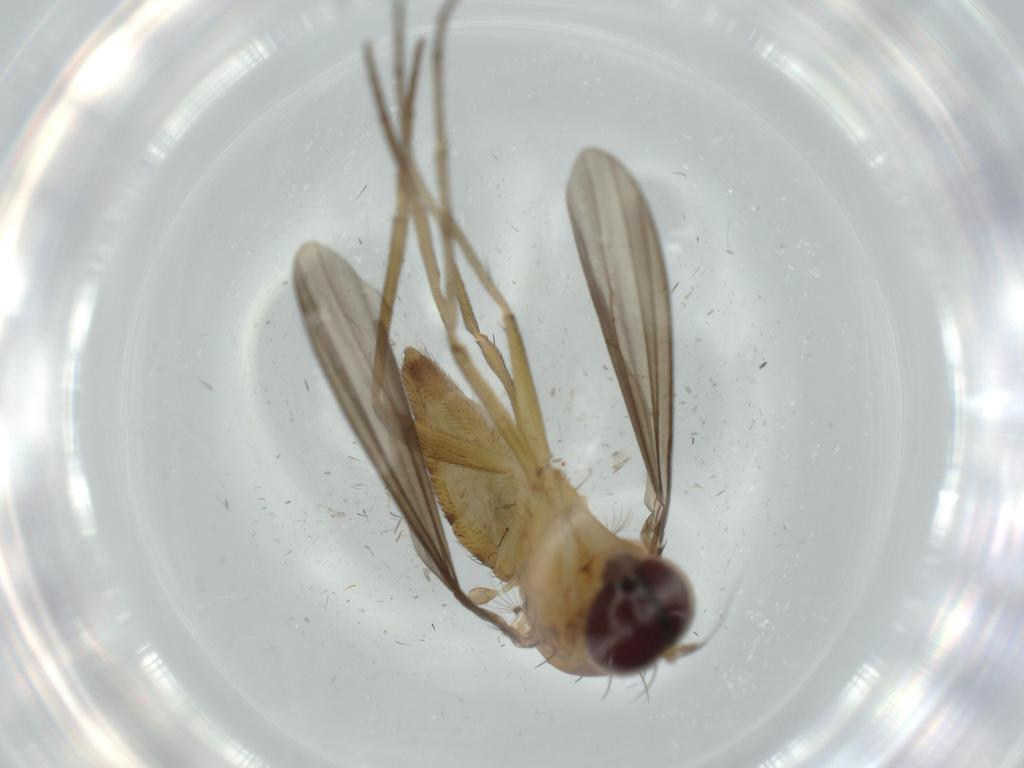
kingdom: Animalia
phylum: Arthropoda
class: Insecta
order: Diptera
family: Dolichopodidae
